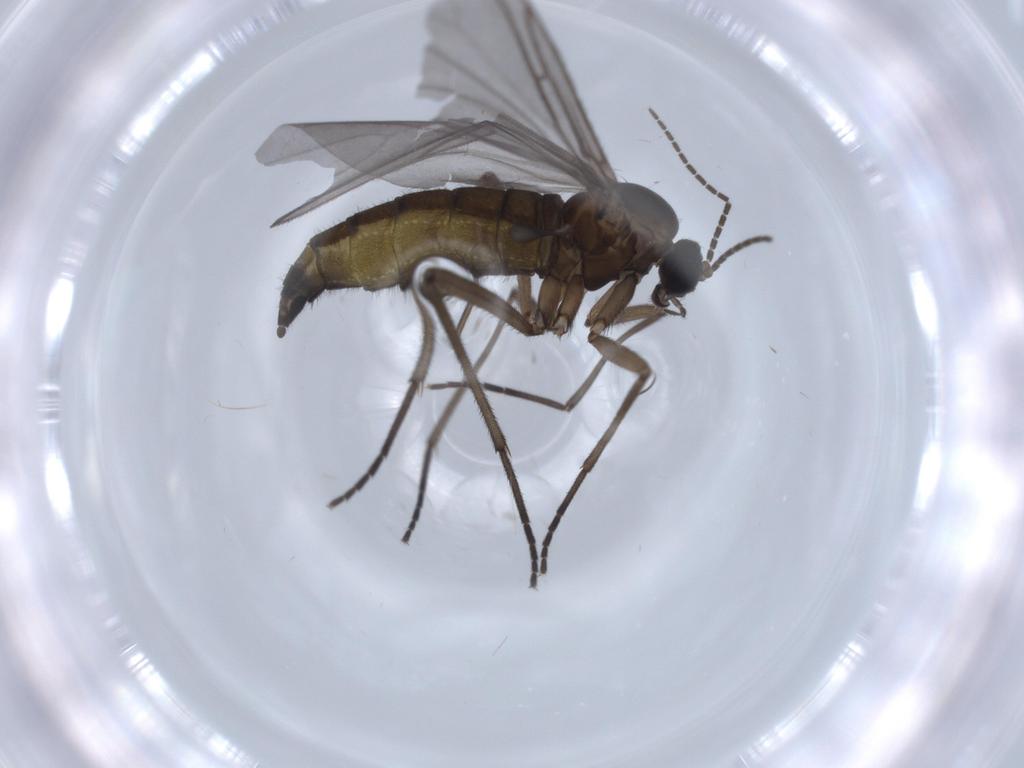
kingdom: Animalia
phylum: Arthropoda
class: Insecta
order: Diptera
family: Sciaridae
